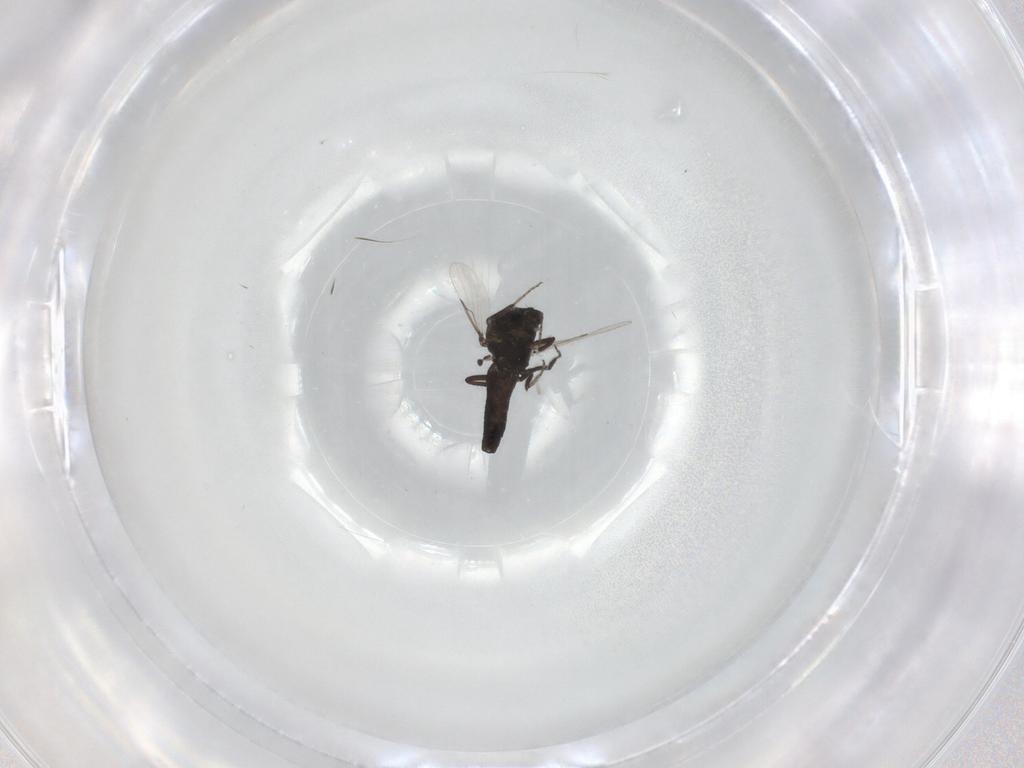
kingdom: Animalia
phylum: Arthropoda
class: Insecta
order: Diptera
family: Ceratopogonidae
